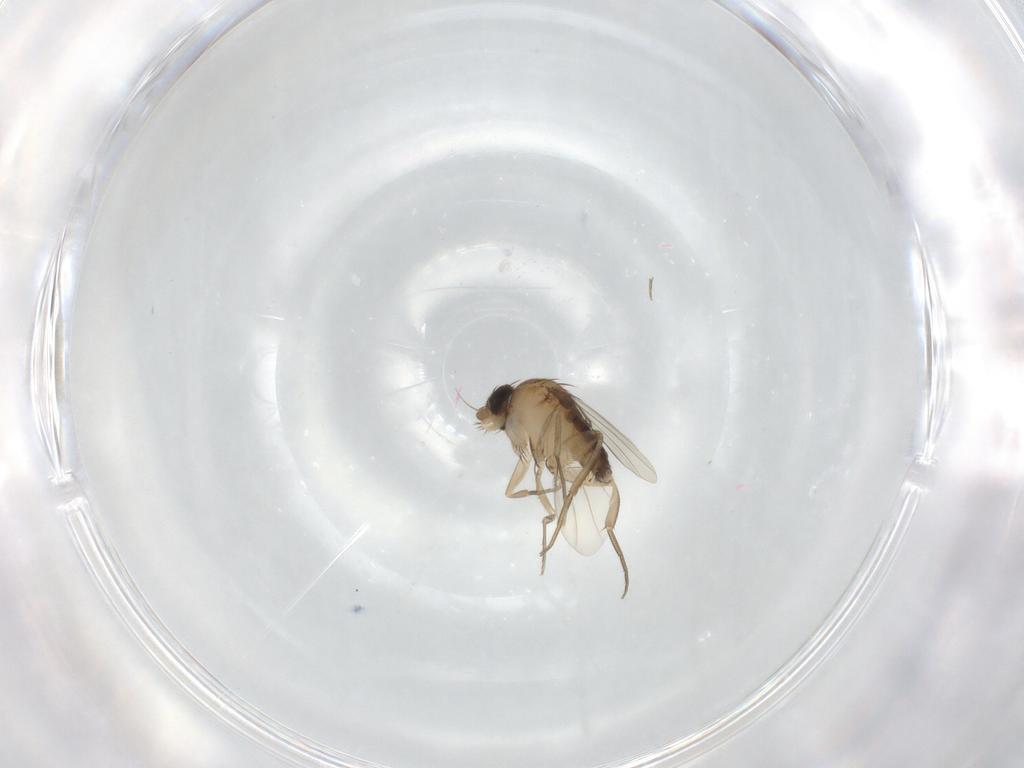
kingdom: Animalia
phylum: Arthropoda
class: Insecta
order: Diptera
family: Phoridae
